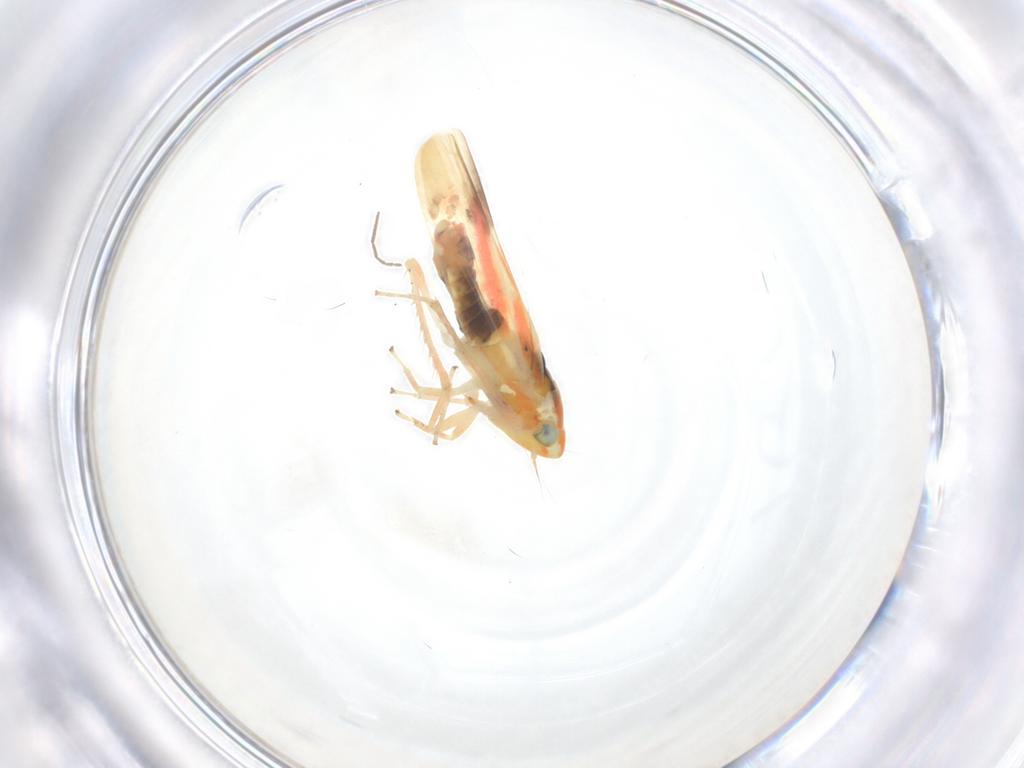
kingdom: Animalia
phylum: Arthropoda
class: Insecta
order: Hemiptera
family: Cicadellidae
